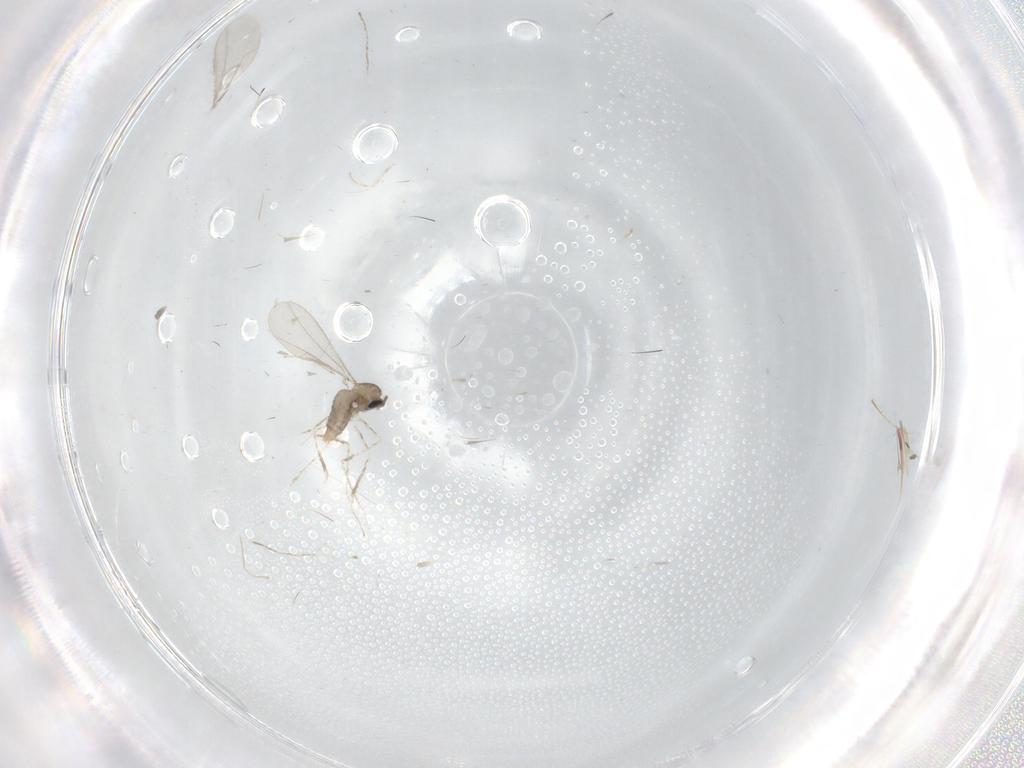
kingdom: Animalia
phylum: Arthropoda
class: Insecta
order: Diptera
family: Cecidomyiidae
